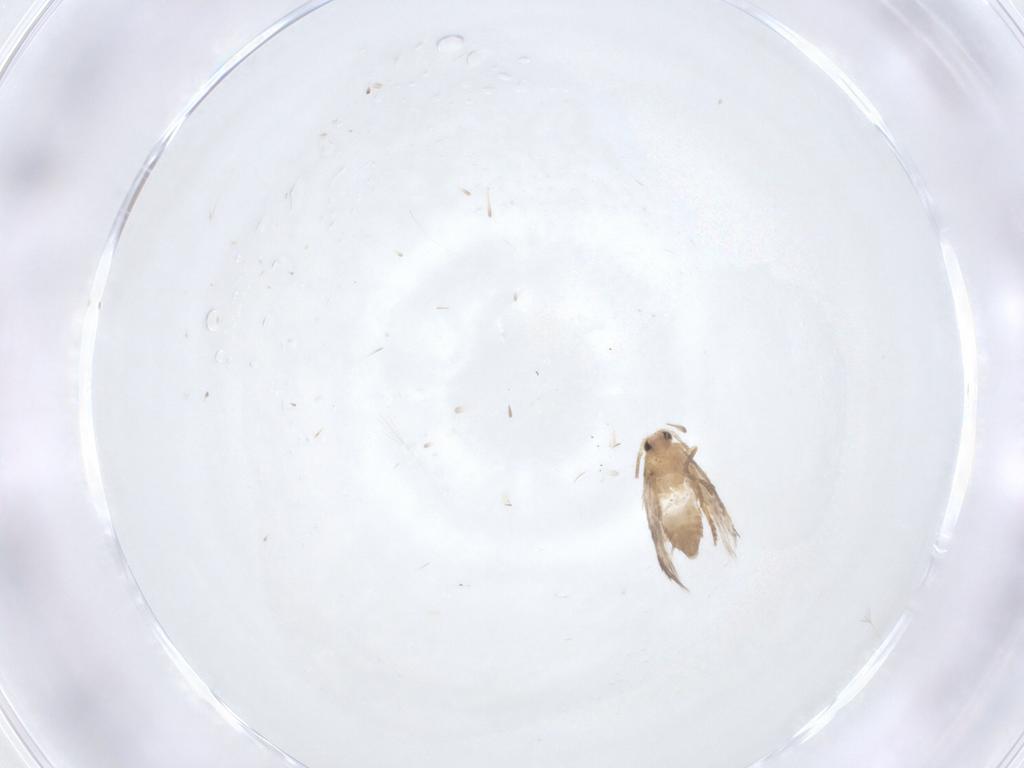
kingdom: Animalia
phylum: Arthropoda
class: Insecta
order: Lepidoptera
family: Nepticulidae
